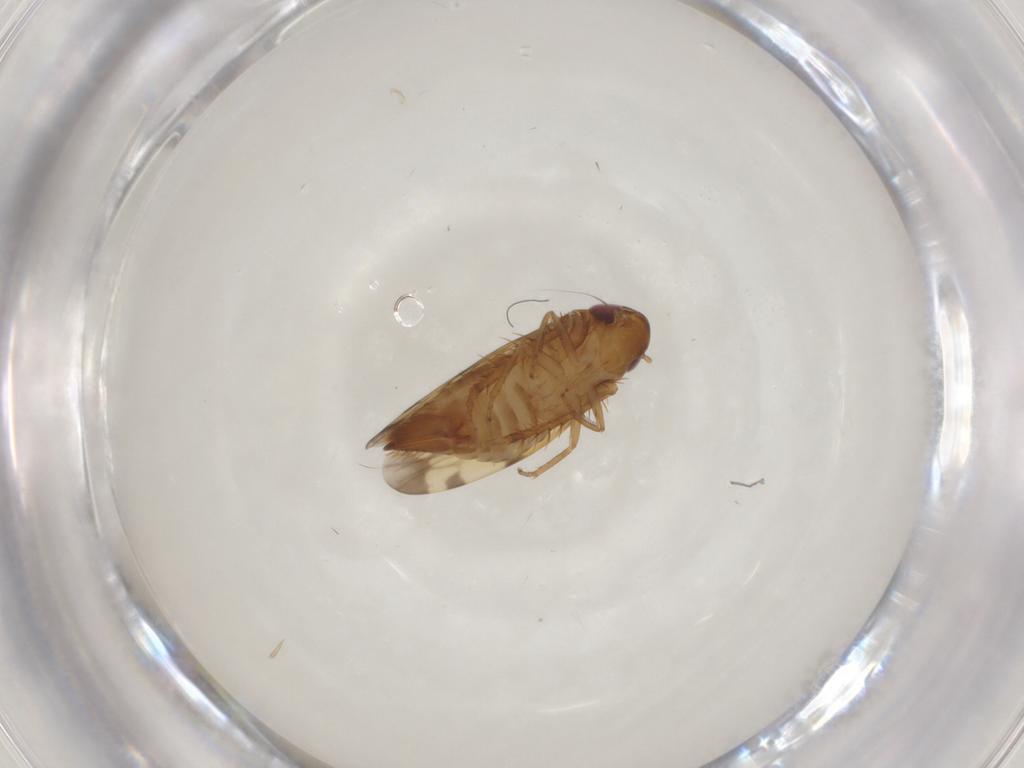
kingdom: Animalia
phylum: Arthropoda
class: Insecta
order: Hemiptera
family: Cicadellidae
